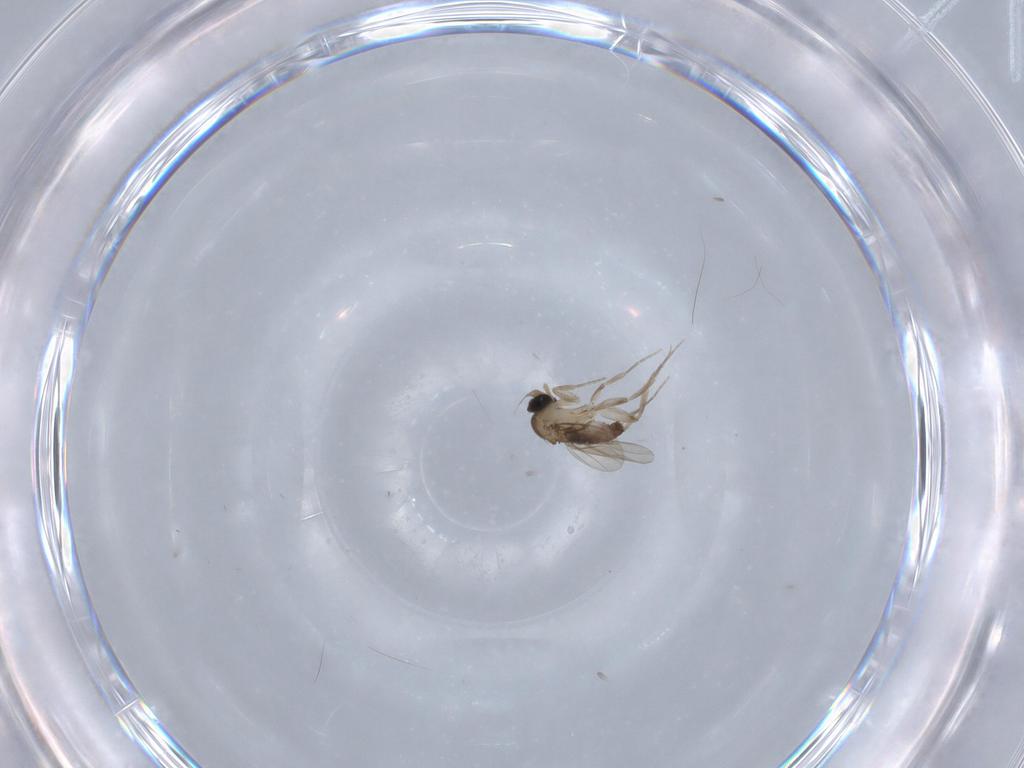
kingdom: Animalia
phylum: Arthropoda
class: Insecta
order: Diptera
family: Phoridae
